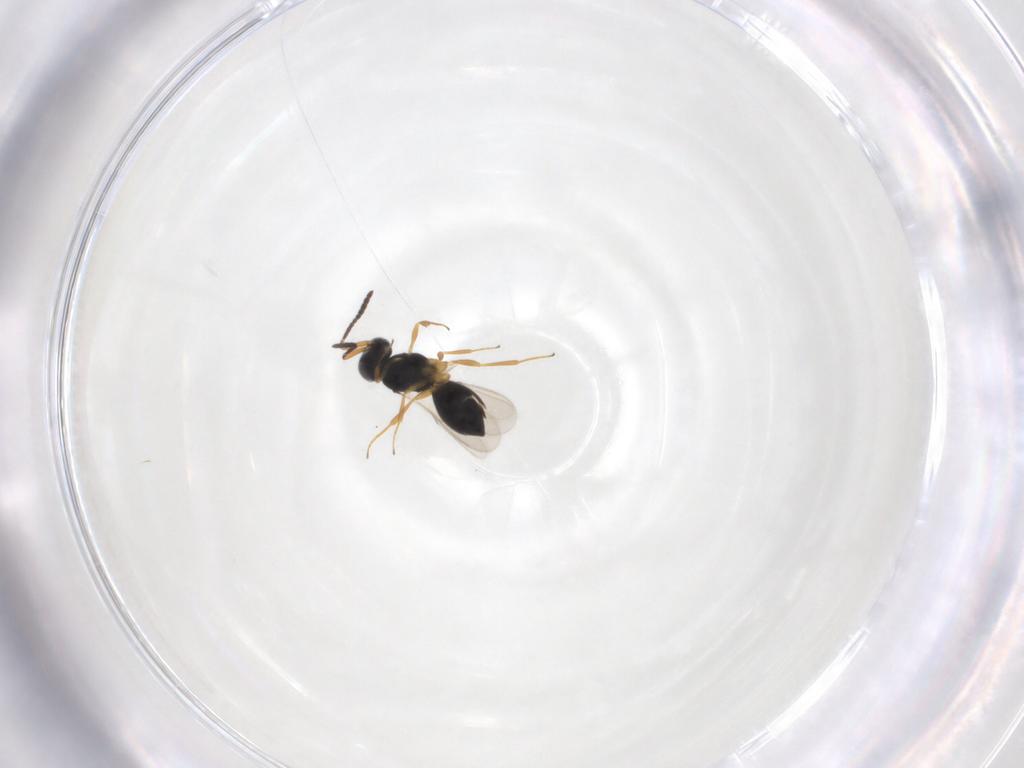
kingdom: Animalia
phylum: Arthropoda
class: Insecta
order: Hymenoptera
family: Scelionidae
